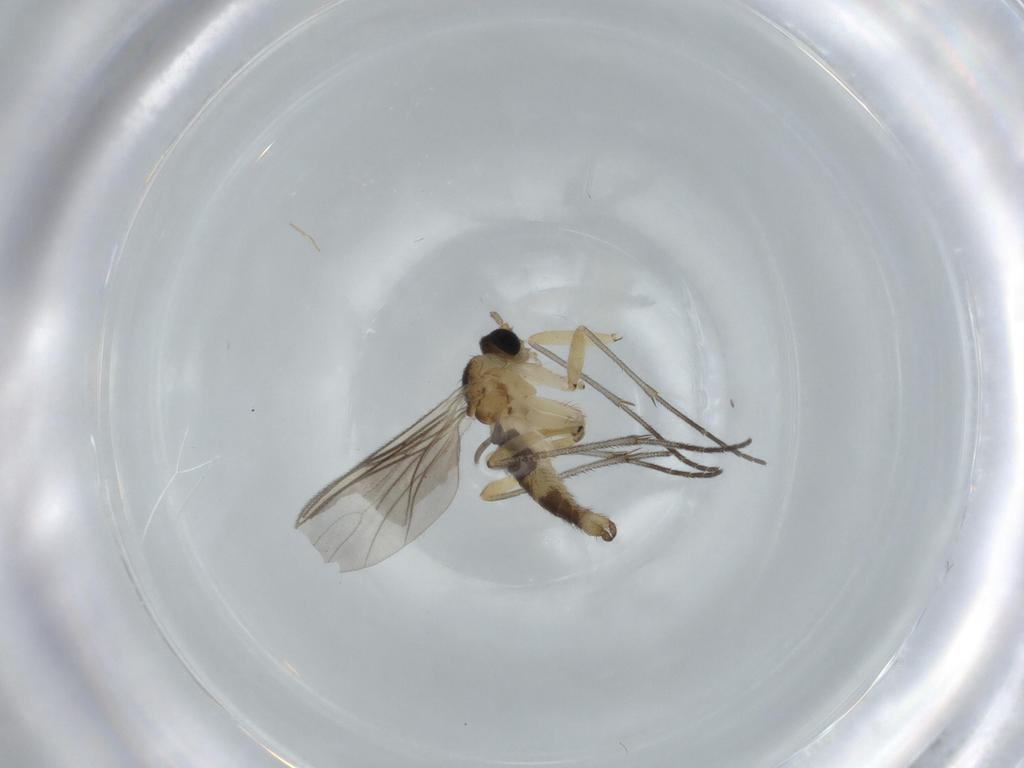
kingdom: Animalia
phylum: Arthropoda
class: Insecta
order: Diptera
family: Sciaridae
